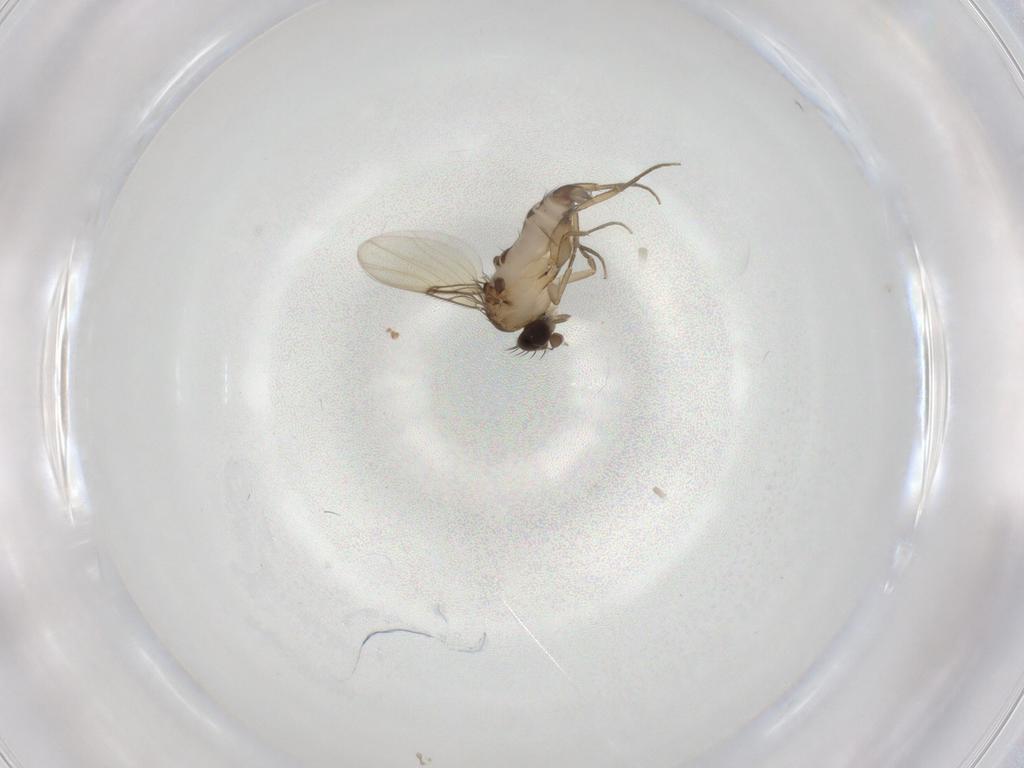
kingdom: Animalia
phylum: Arthropoda
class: Insecta
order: Diptera
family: Phoridae
